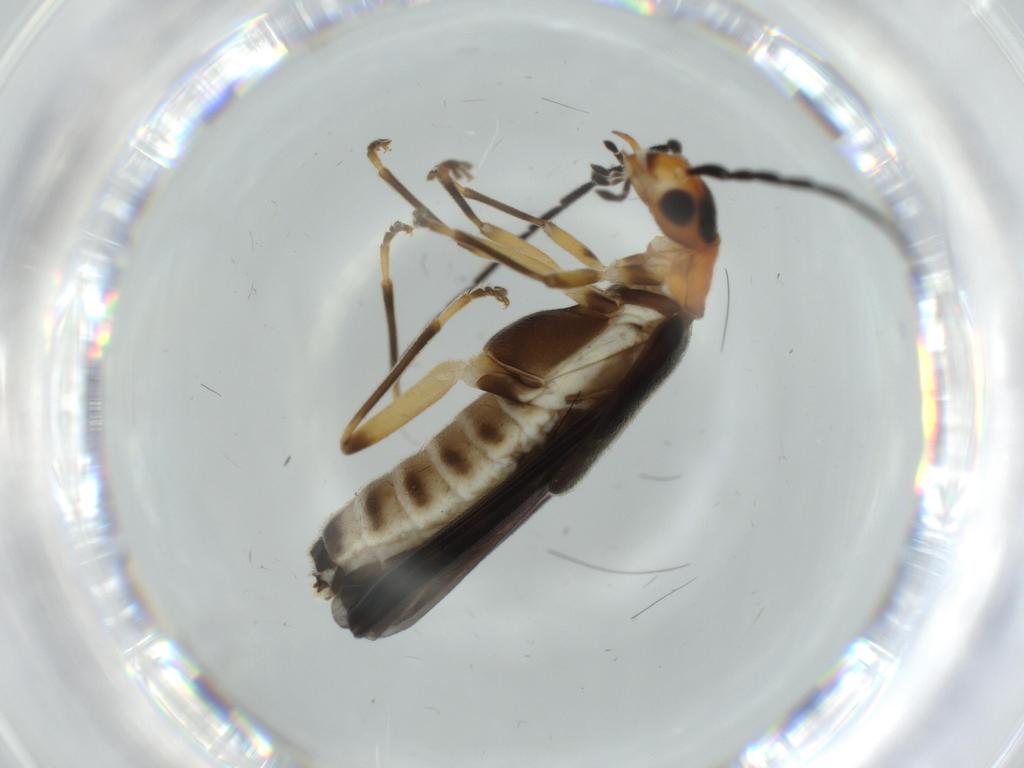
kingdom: Animalia
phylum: Arthropoda
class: Insecta
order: Coleoptera
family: Cantharidae
